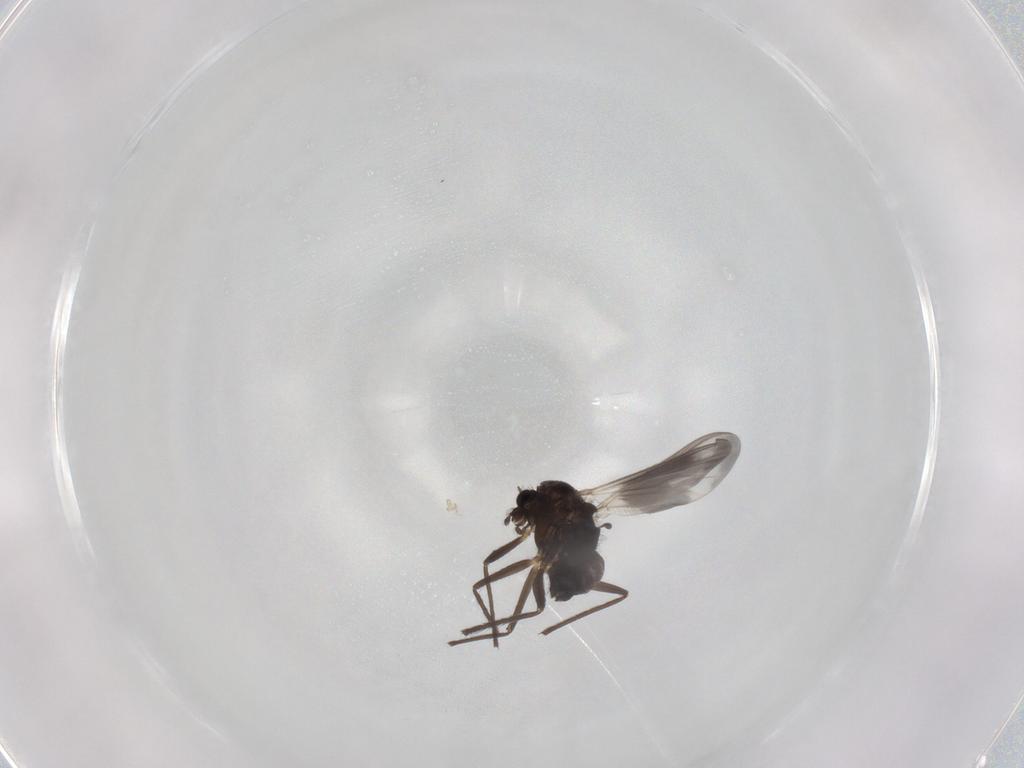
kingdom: Animalia
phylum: Arthropoda
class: Insecta
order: Diptera
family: Chironomidae
